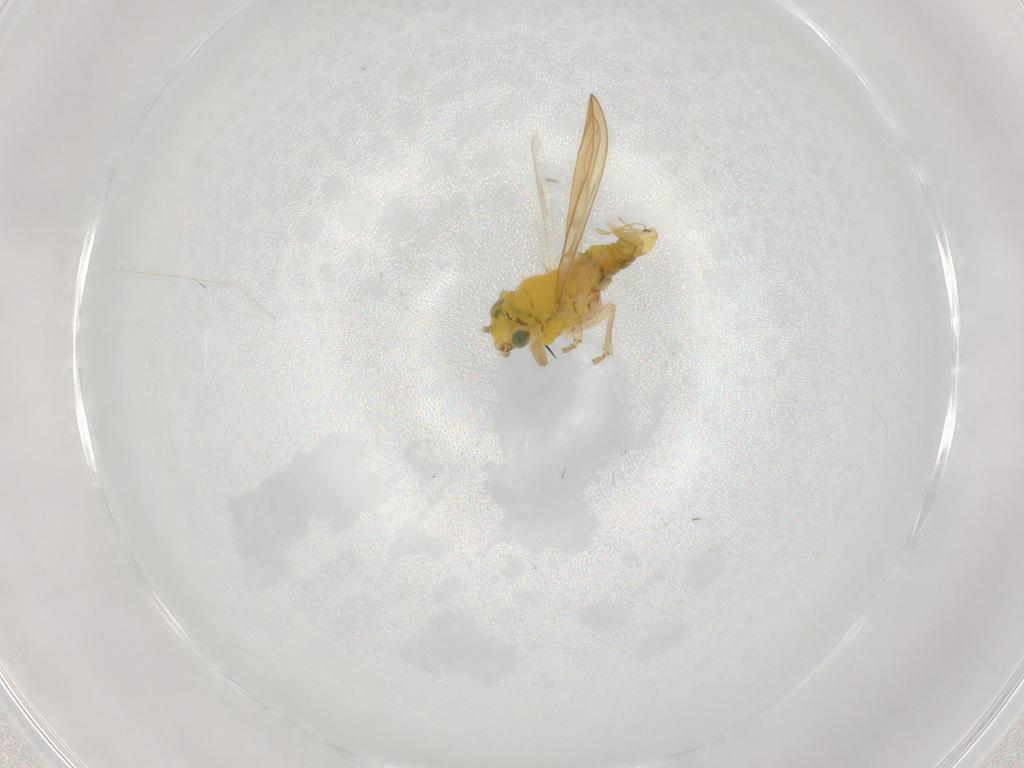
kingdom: Animalia
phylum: Arthropoda
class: Insecta
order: Hemiptera
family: Aphalaridae
